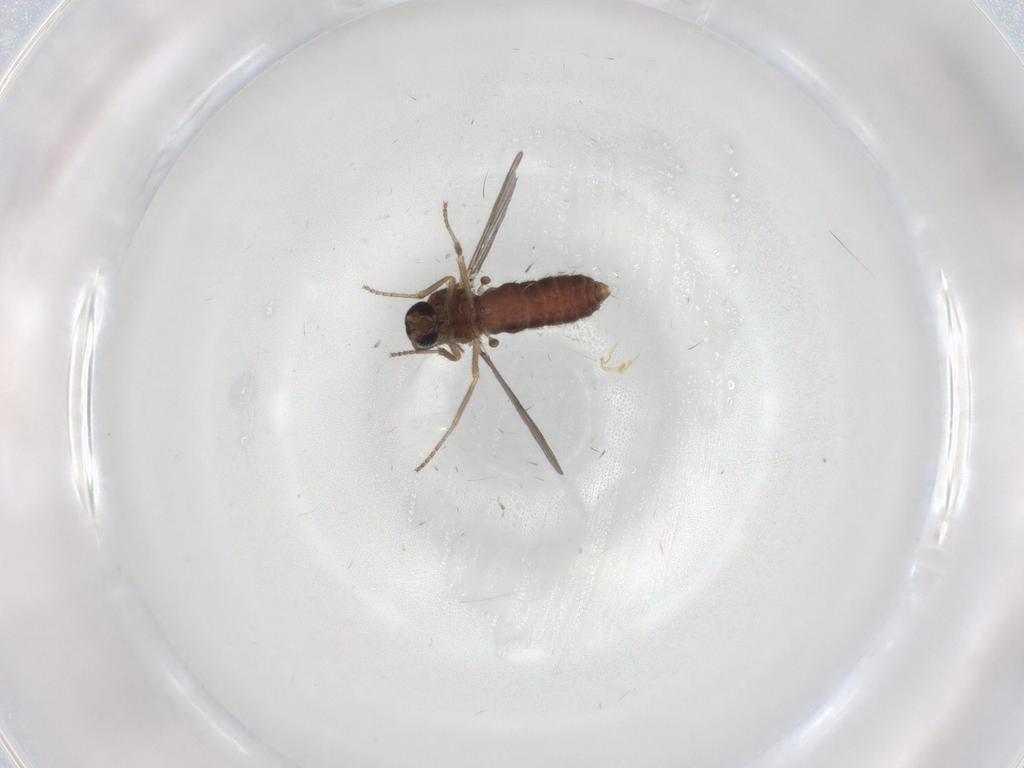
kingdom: Animalia
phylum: Arthropoda
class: Insecta
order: Diptera
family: Ceratopogonidae
